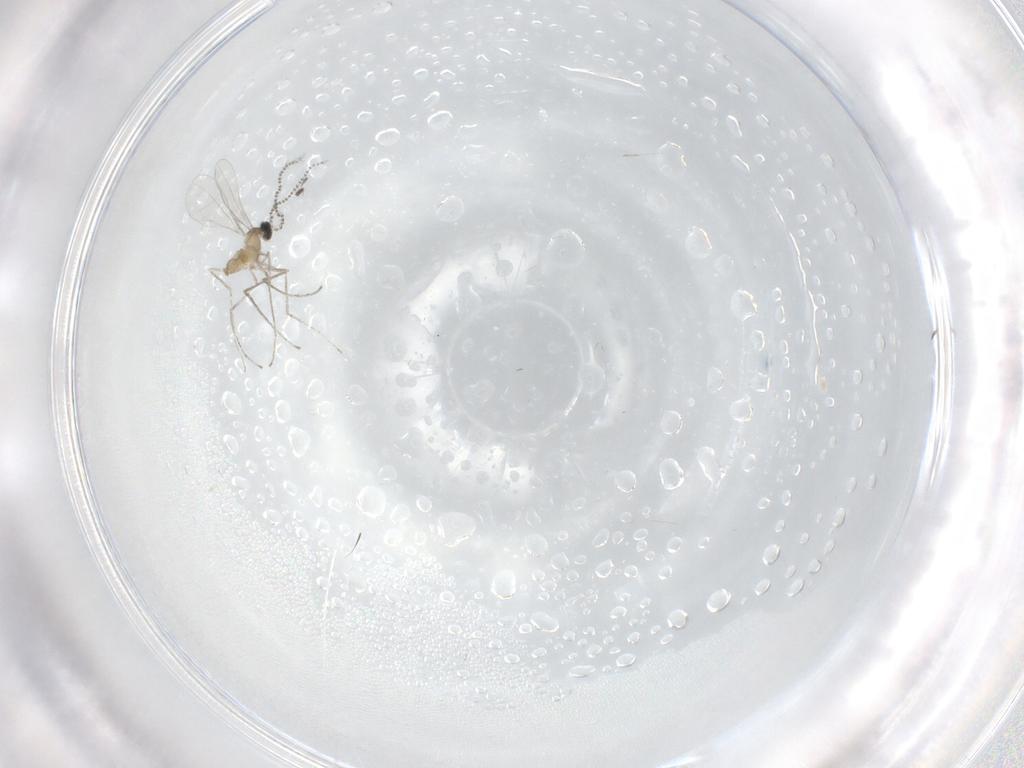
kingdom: Animalia
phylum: Arthropoda
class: Insecta
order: Diptera
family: Cecidomyiidae
